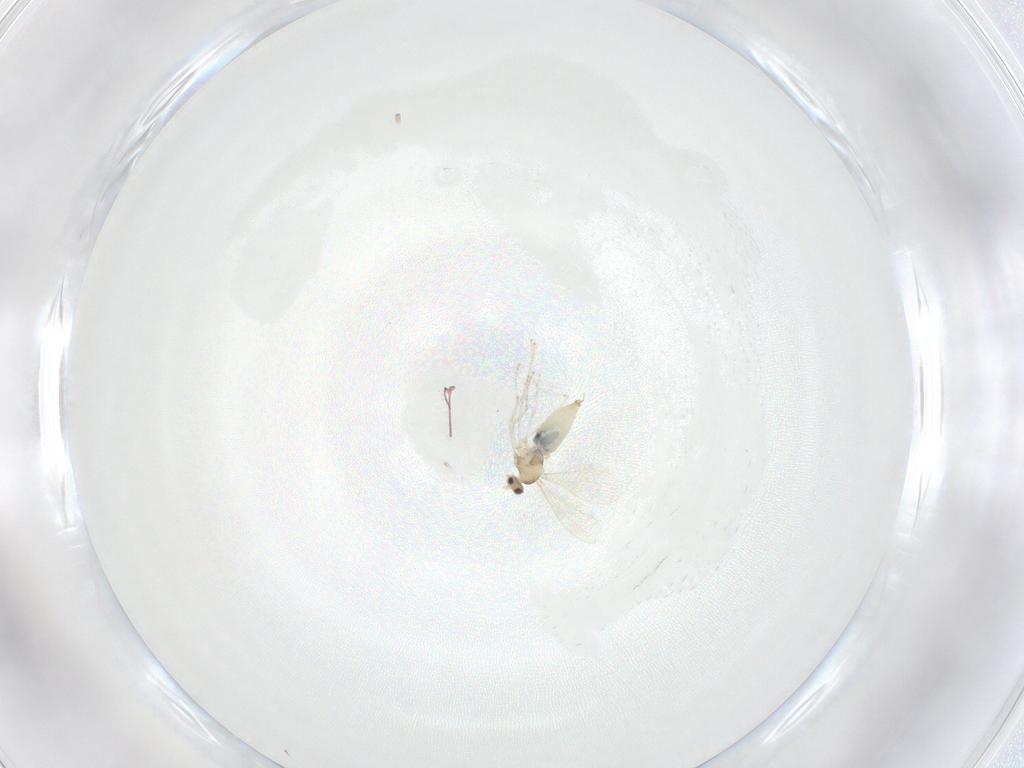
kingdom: Animalia
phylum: Arthropoda
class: Insecta
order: Diptera
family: Cecidomyiidae
